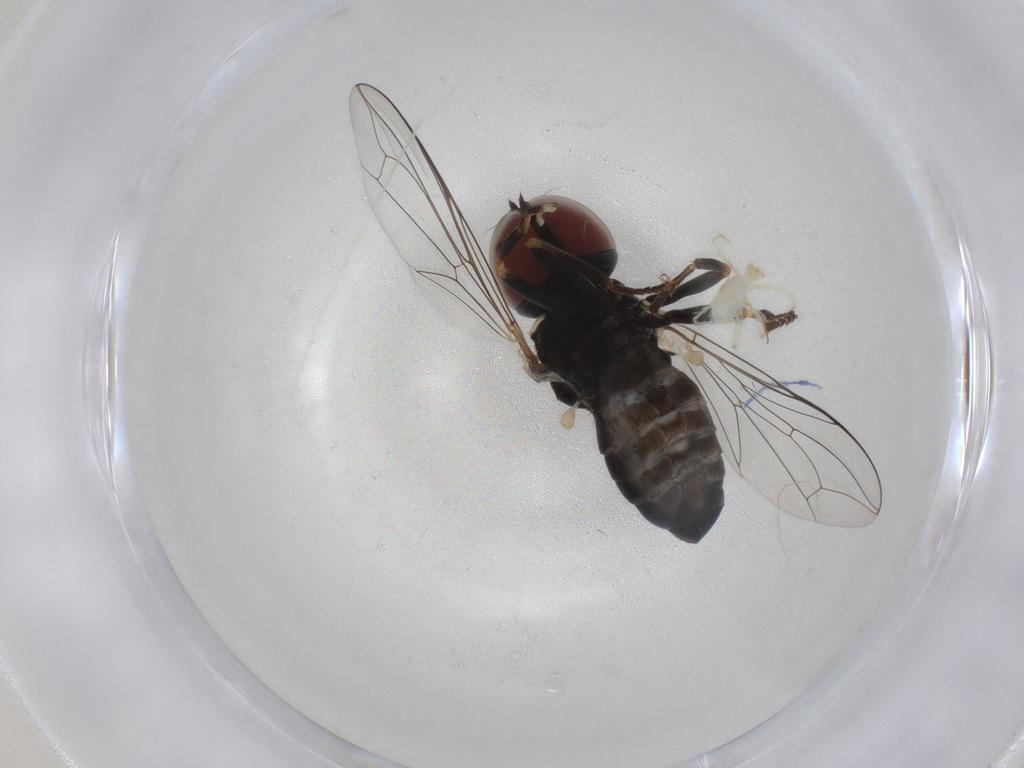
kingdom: Animalia
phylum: Arthropoda
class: Insecta
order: Diptera
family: Pipunculidae
